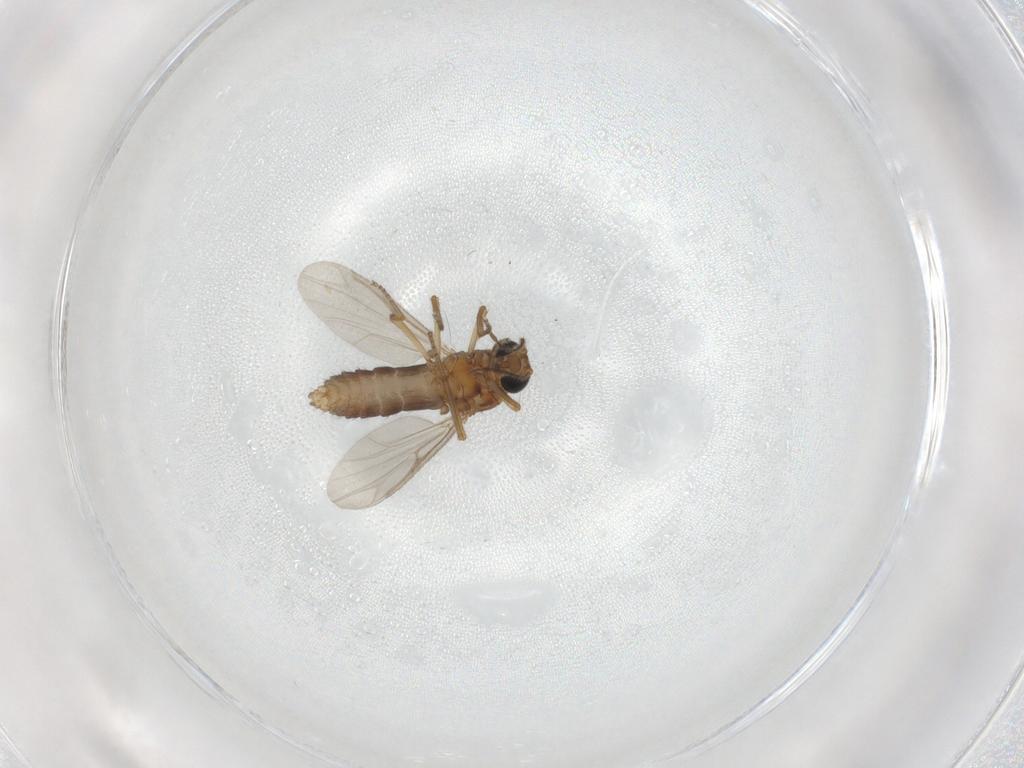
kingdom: Animalia
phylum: Arthropoda
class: Insecta
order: Diptera
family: Ceratopogonidae
